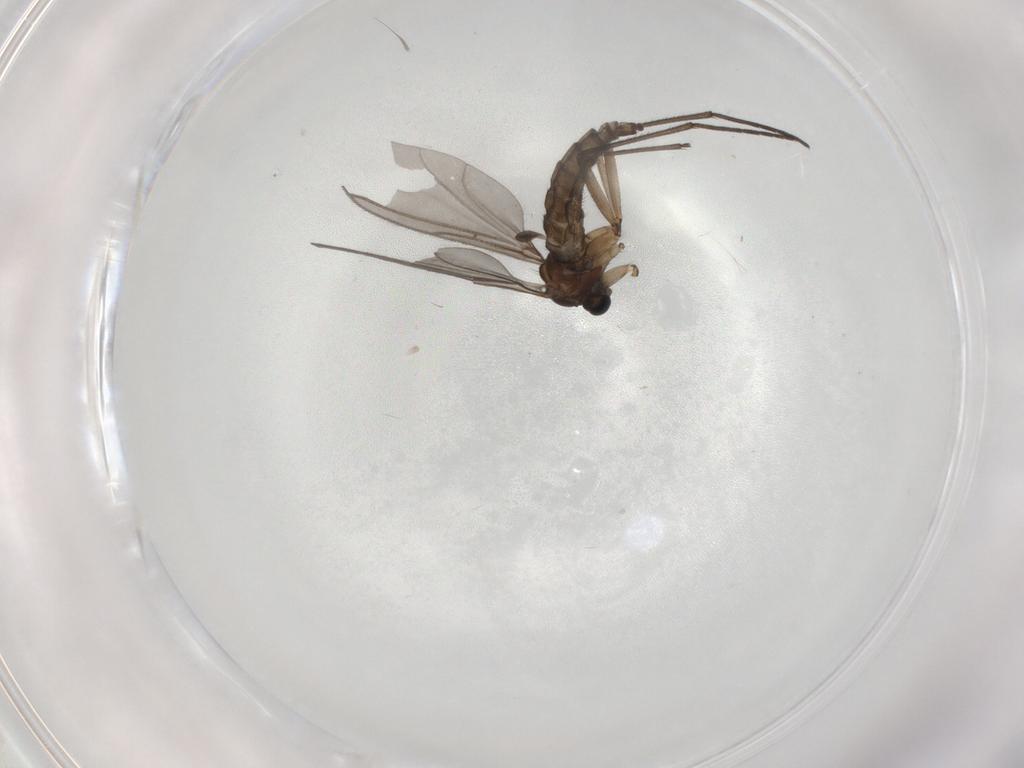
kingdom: Animalia
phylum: Arthropoda
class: Insecta
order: Diptera
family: Sciaridae
